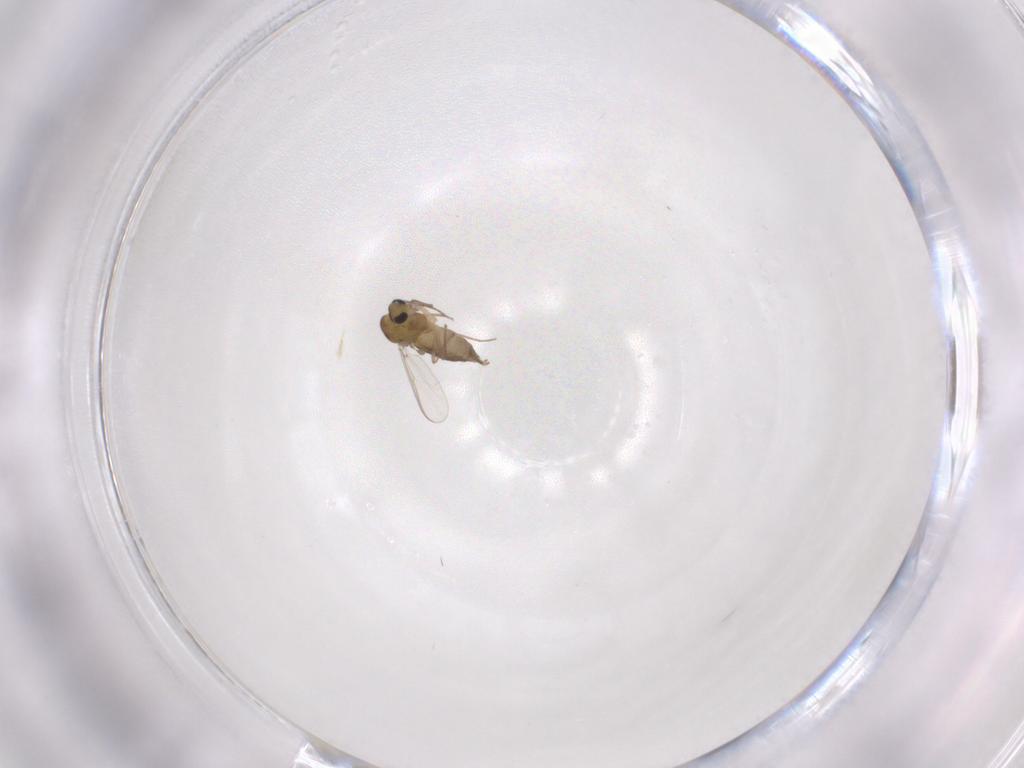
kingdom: Animalia
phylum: Arthropoda
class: Insecta
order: Diptera
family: Chironomidae
